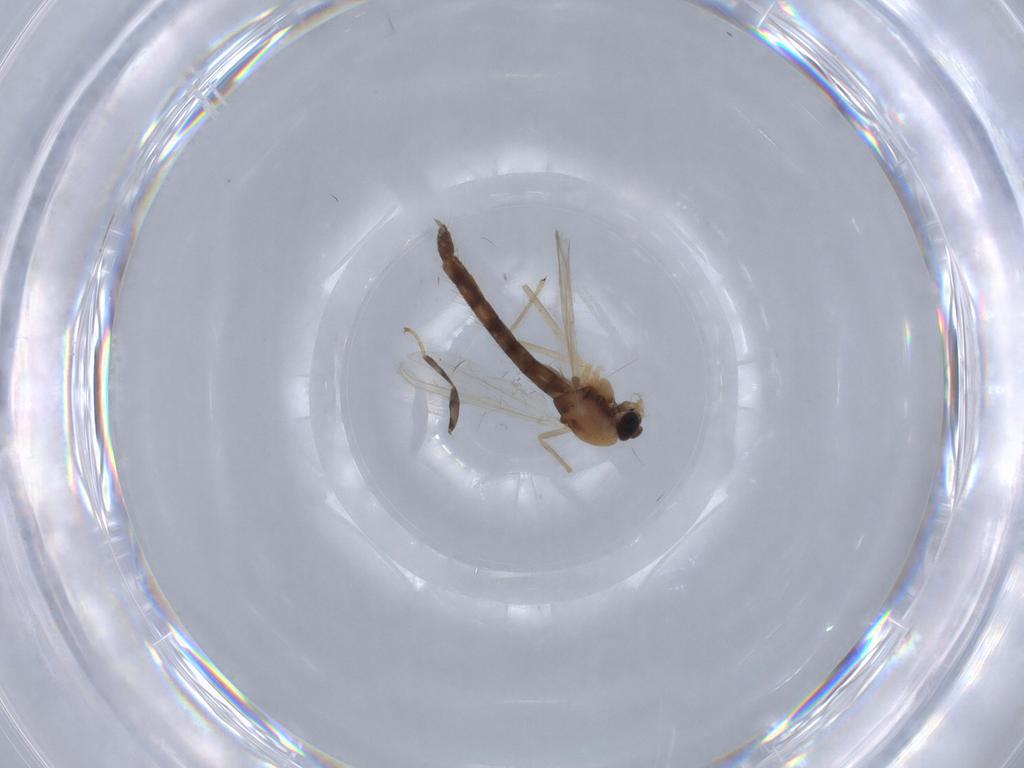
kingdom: Animalia
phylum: Arthropoda
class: Insecta
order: Diptera
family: Chironomidae
